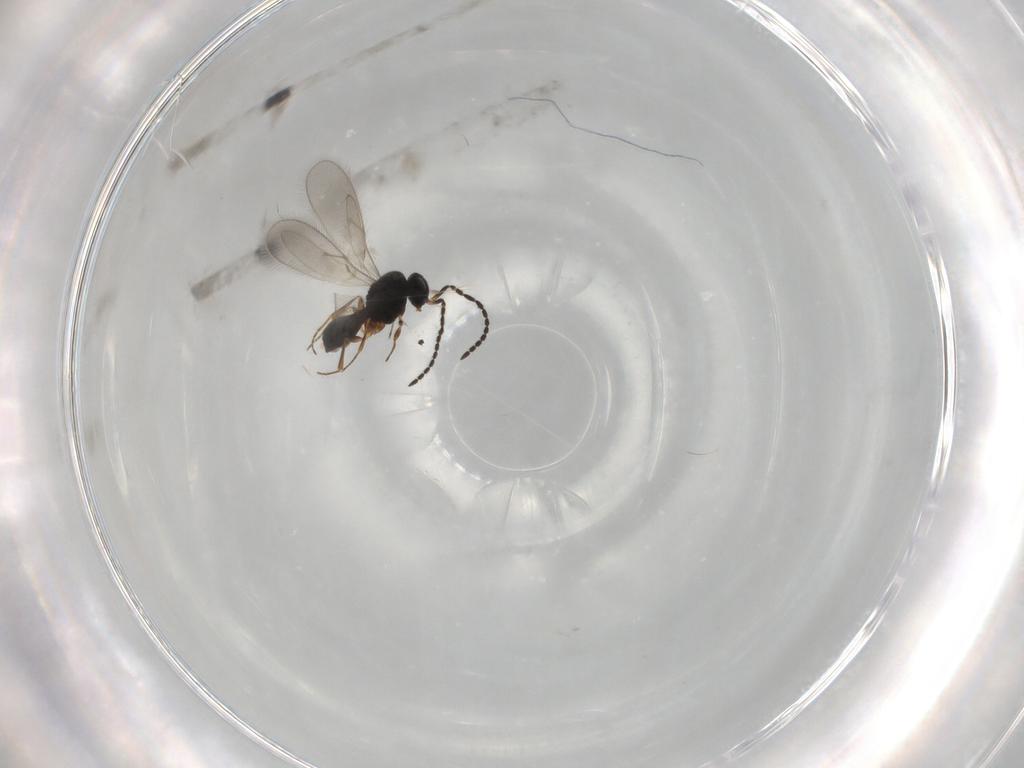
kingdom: Animalia
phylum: Arthropoda
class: Insecta
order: Hymenoptera
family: Scelionidae
